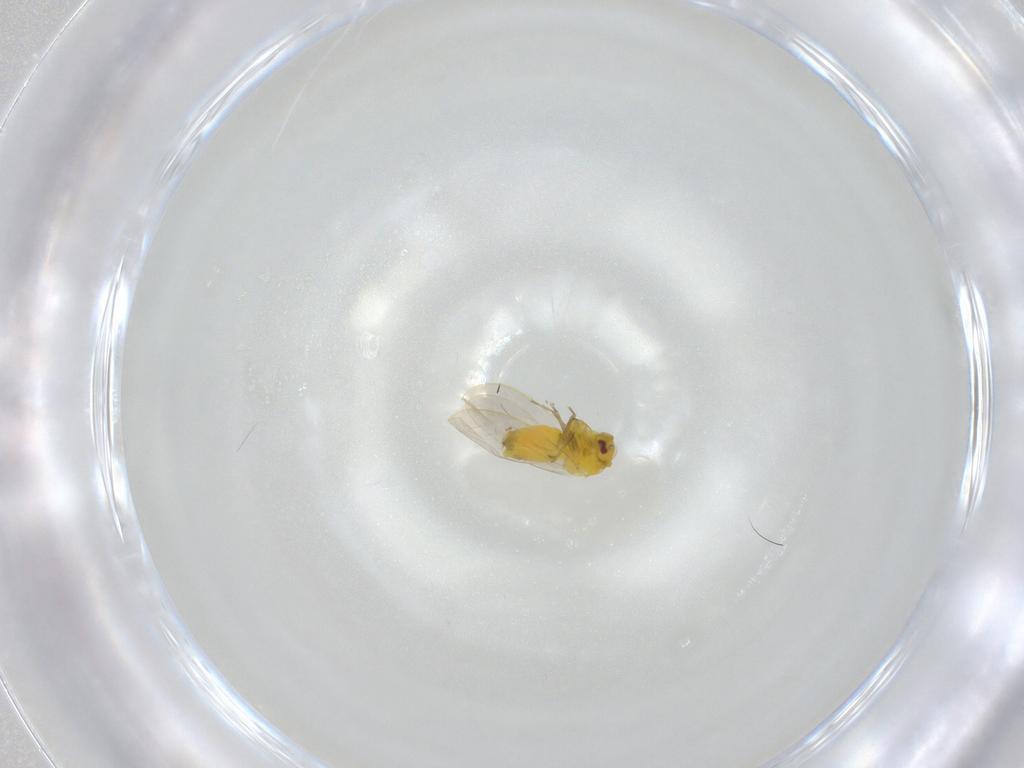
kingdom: Animalia
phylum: Arthropoda
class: Insecta
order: Hemiptera
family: Aleyrodidae
